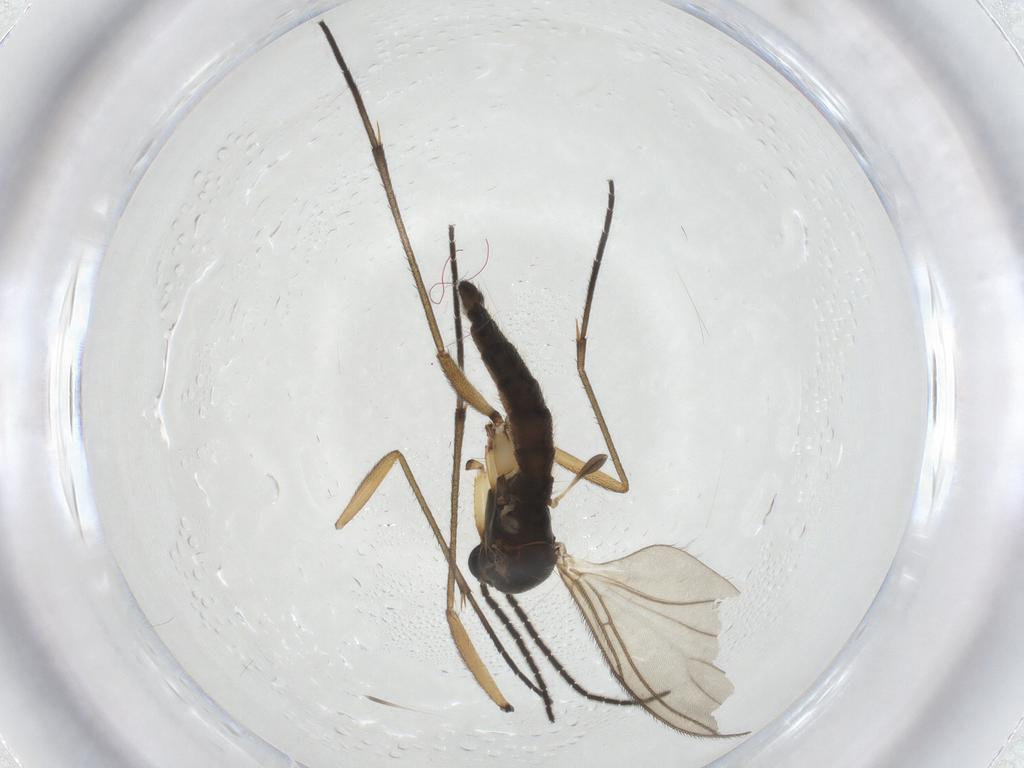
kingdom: Animalia
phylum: Arthropoda
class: Insecta
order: Diptera
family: Sciaridae
